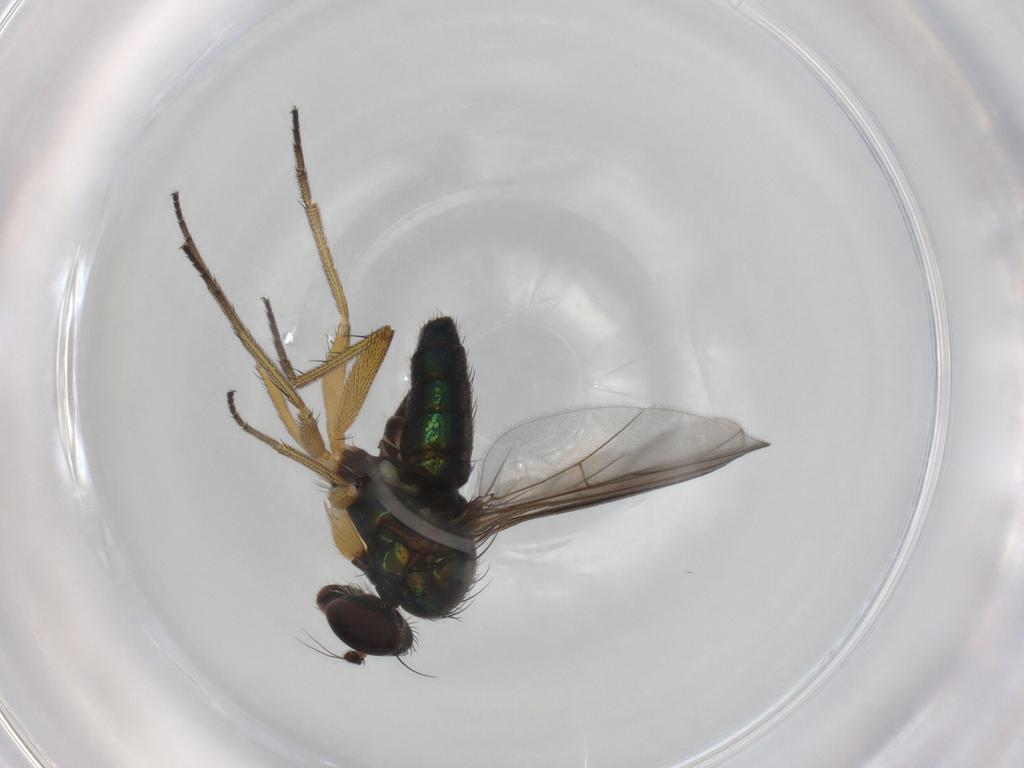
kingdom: Animalia
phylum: Arthropoda
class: Insecta
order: Diptera
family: Dolichopodidae
